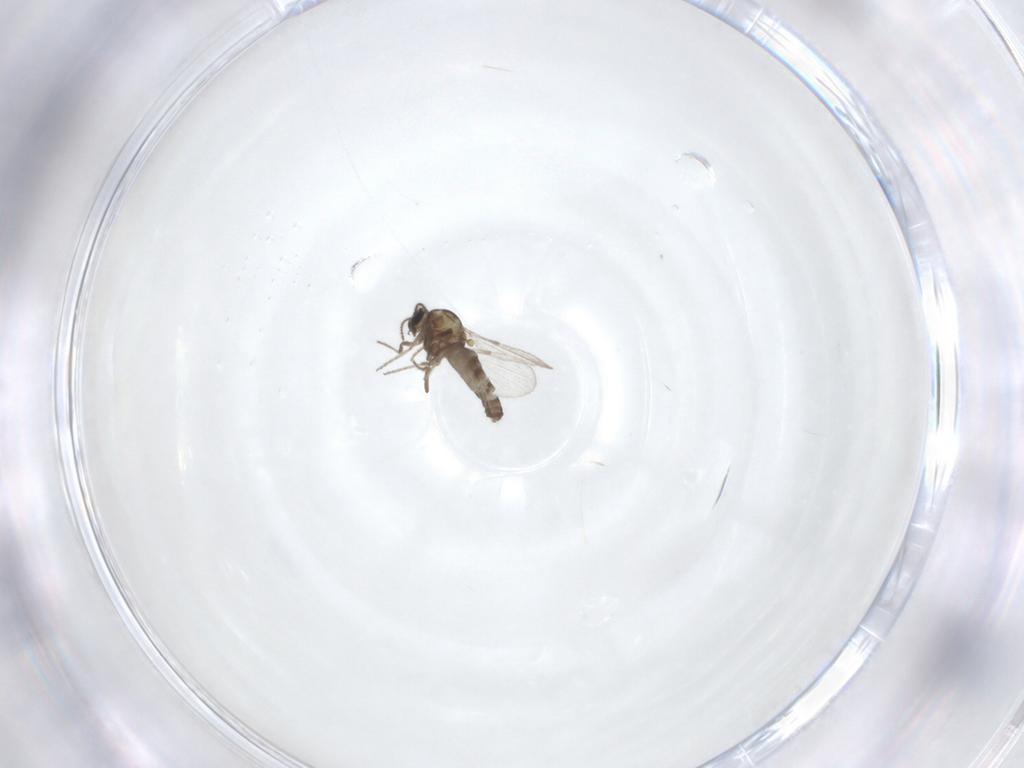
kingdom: Animalia
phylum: Arthropoda
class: Insecta
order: Diptera
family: Ceratopogonidae
